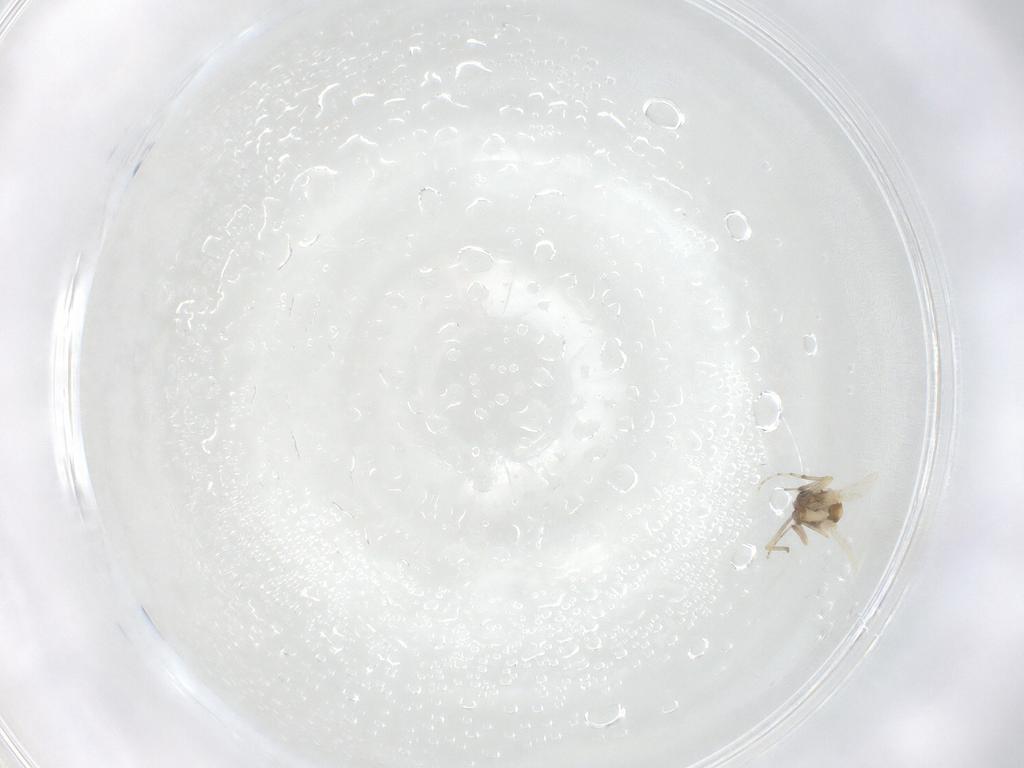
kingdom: Animalia
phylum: Arthropoda
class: Insecta
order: Diptera
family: Ceratopogonidae
